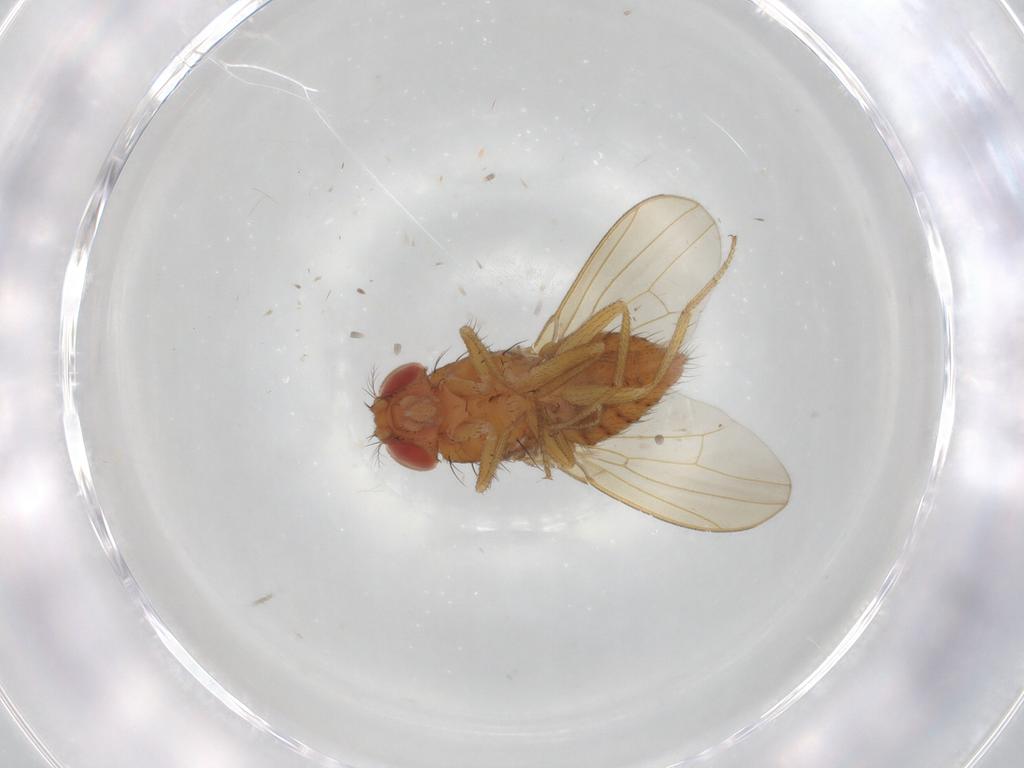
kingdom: Animalia
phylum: Arthropoda
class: Insecta
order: Diptera
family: Drosophilidae
